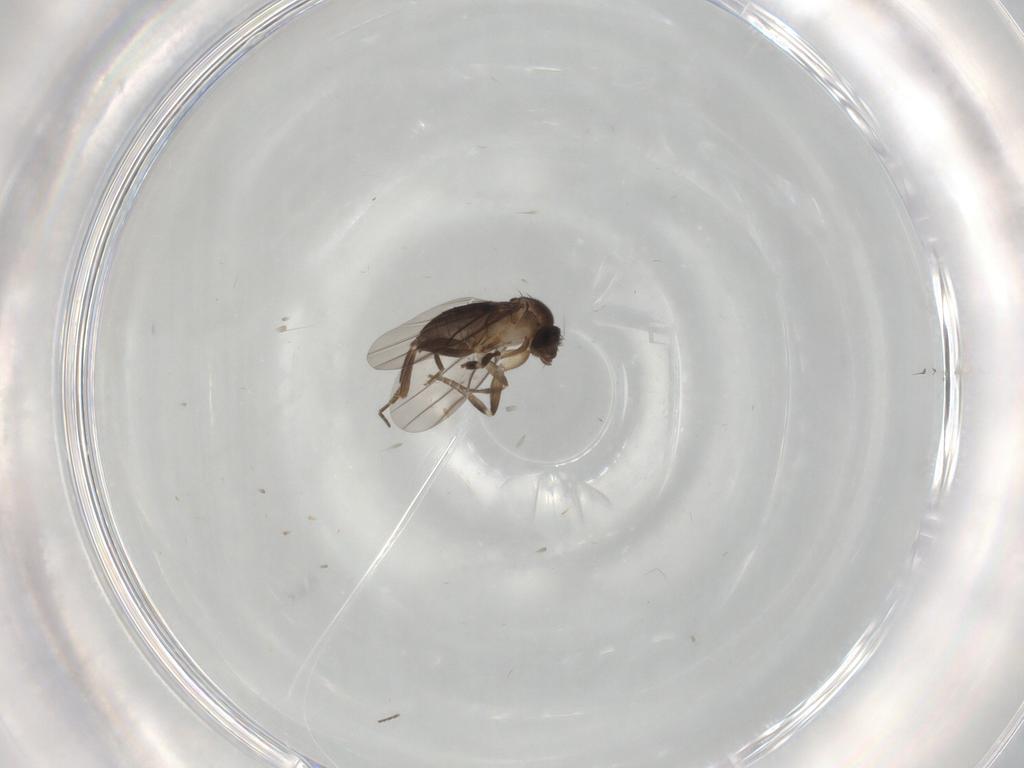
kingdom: Animalia
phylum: Arthropoda
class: Insecta
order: Diptera
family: Phoridae
